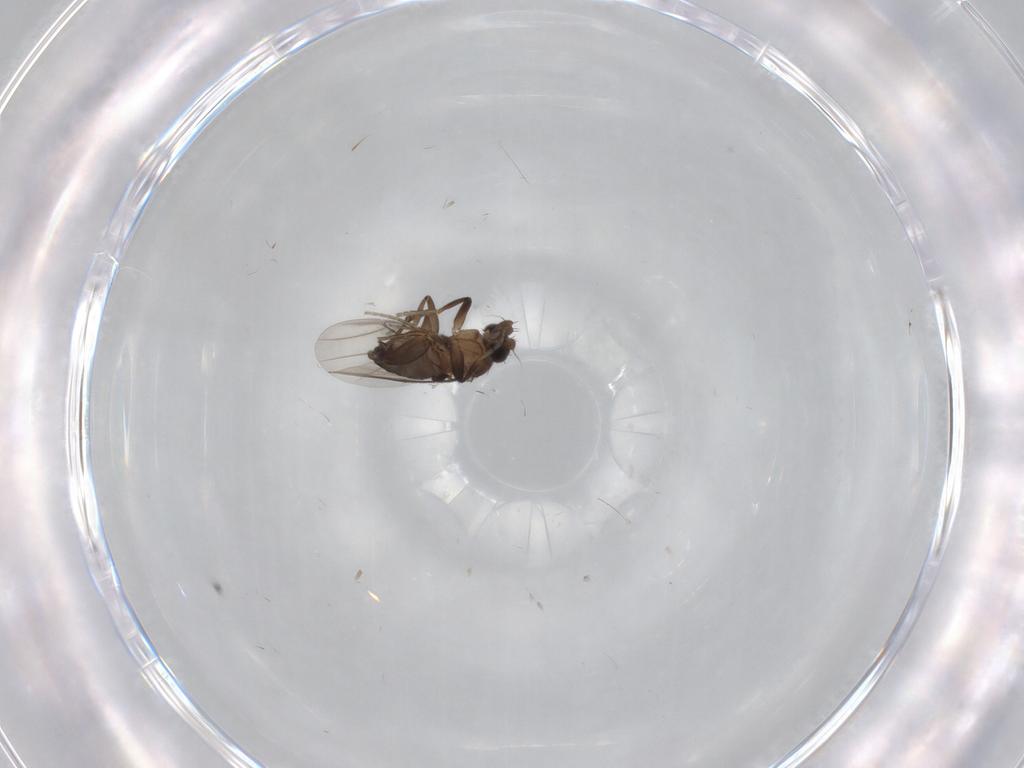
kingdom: Animalia
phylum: Arthropoda
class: Insecta
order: Diptera
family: Phoridae
